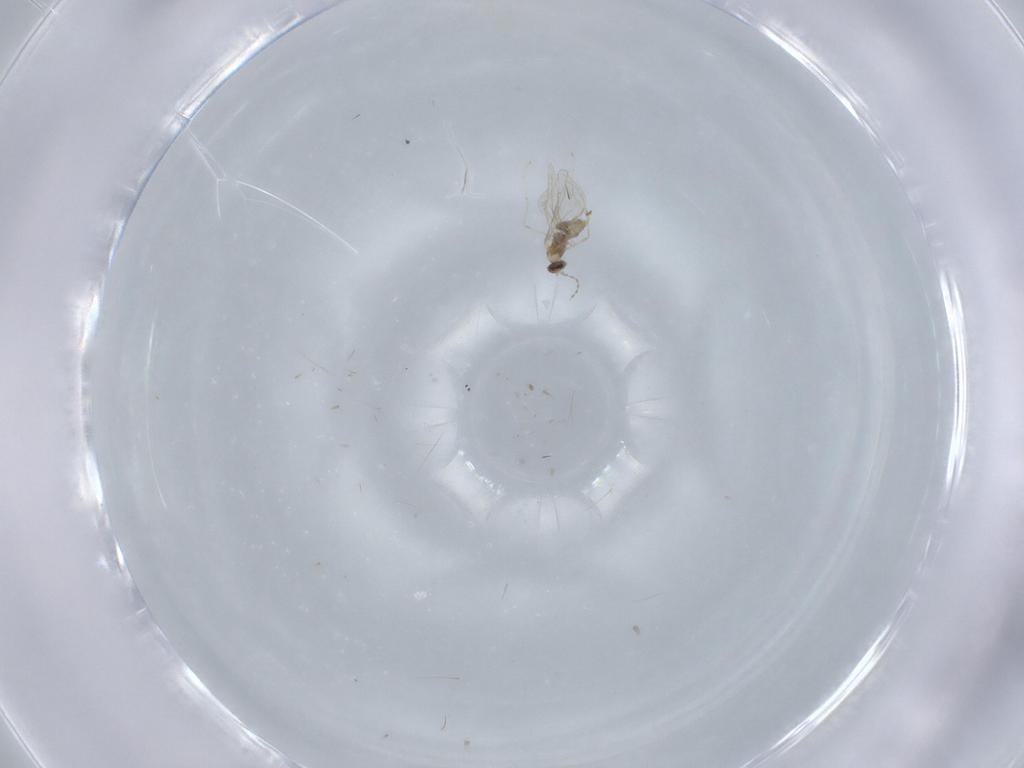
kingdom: Animalia
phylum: Arthropoda
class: Insecta
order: Diptera
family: Cecidomyiidae
